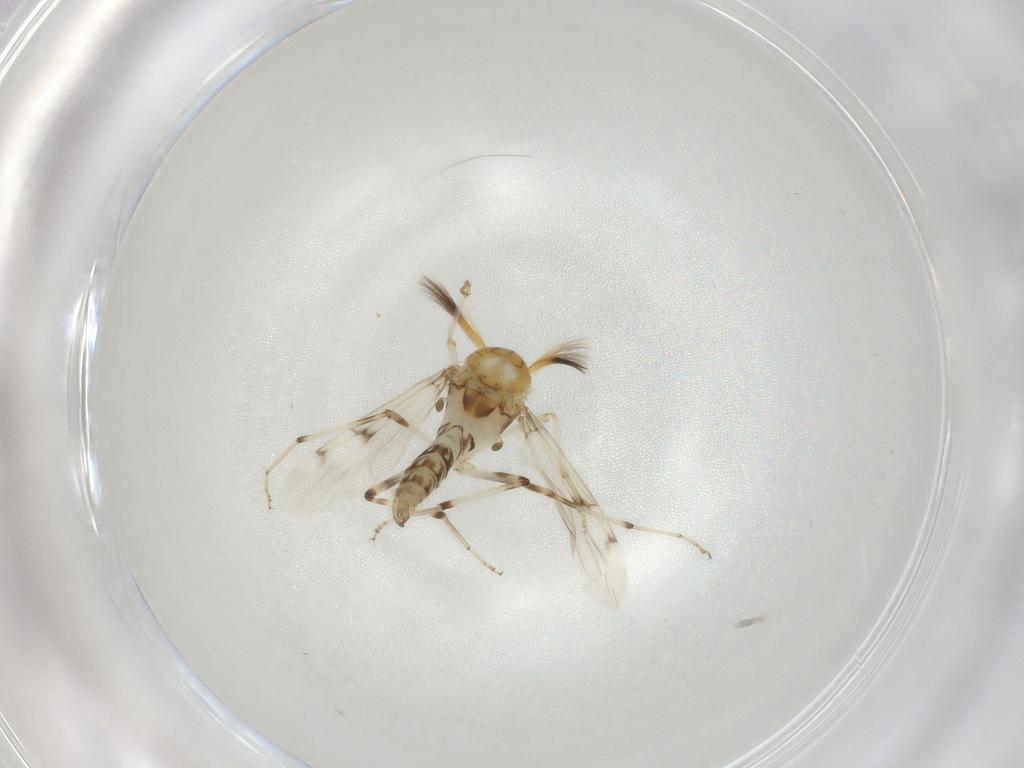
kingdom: Animalia
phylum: Arthropoda
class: Insecta
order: Diptera
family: Ceratopogonidae
